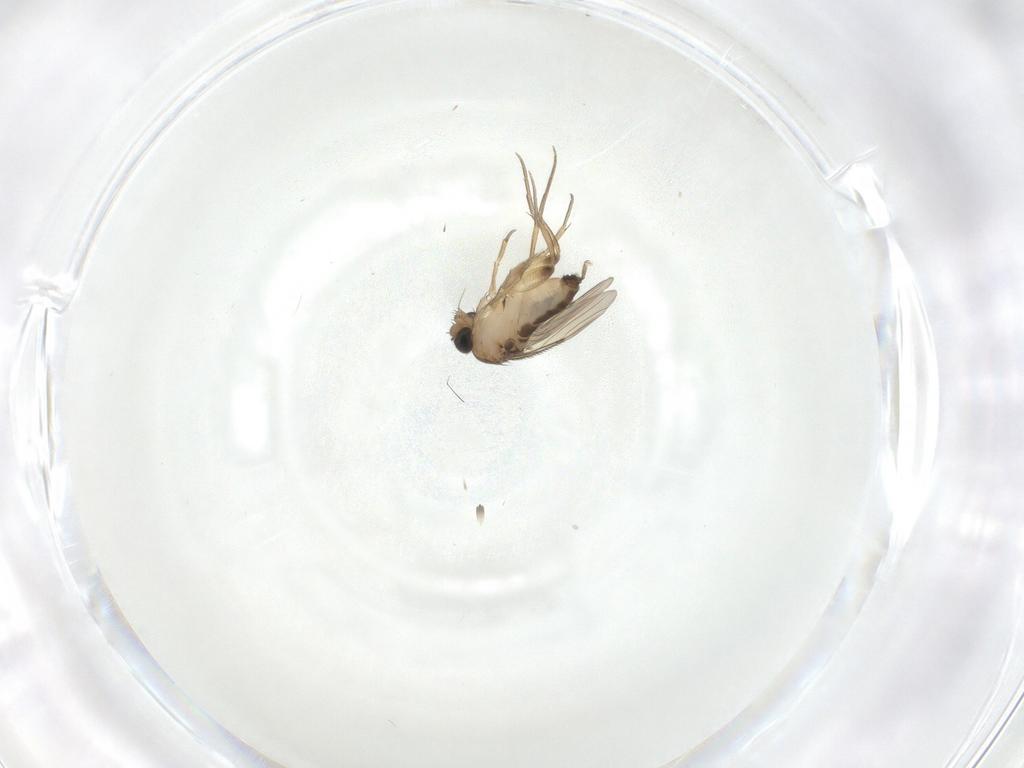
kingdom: Animalia
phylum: Arthropoda
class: Insecta
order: Diptera
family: Phoridae
